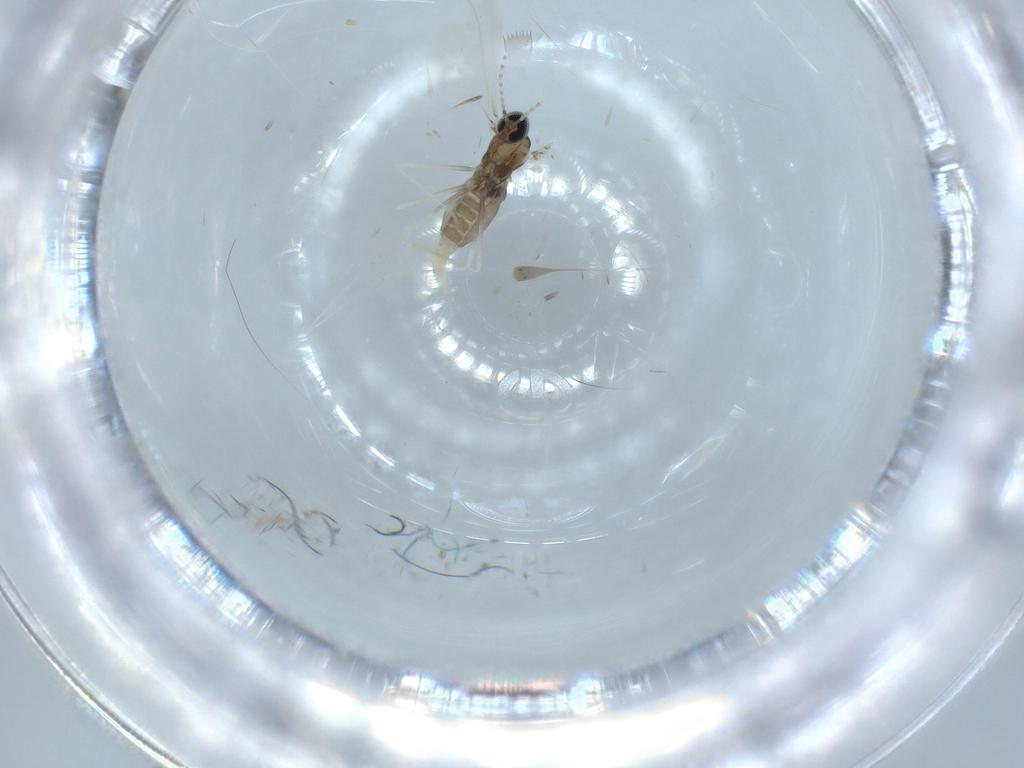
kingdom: Animalia
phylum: Arthropoda
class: Insecta
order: Diptera
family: Cecidomyiidae
